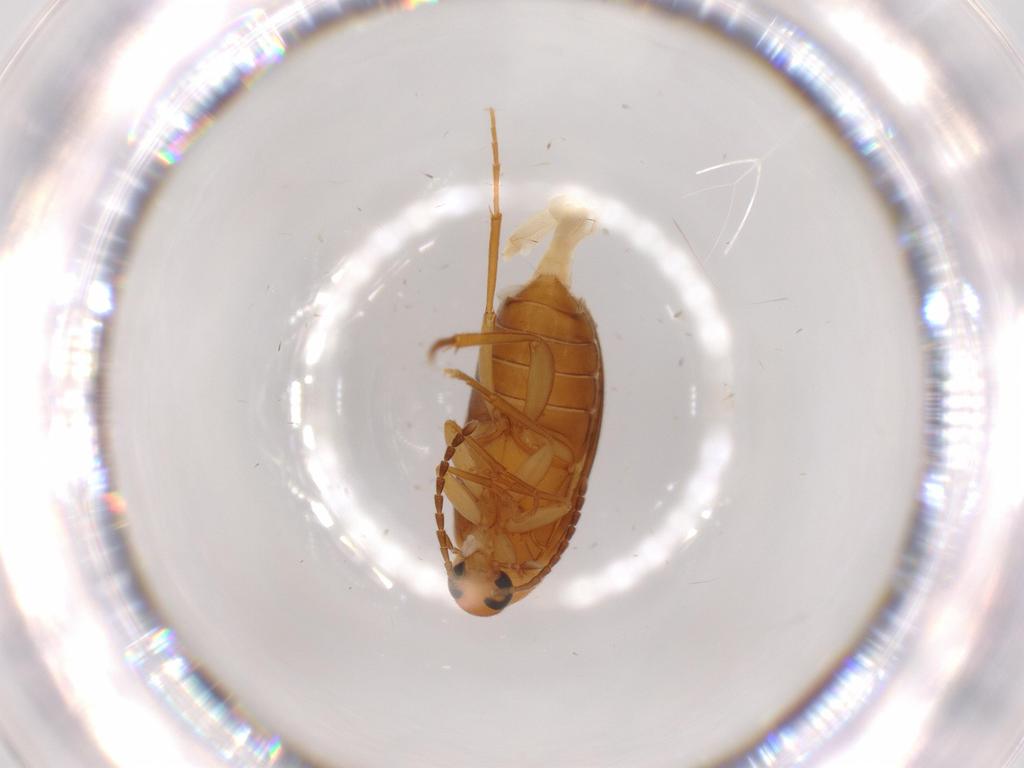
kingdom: Animalia
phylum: Arthropoda
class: Insecta
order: Coleoptera
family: Scraptiidae
